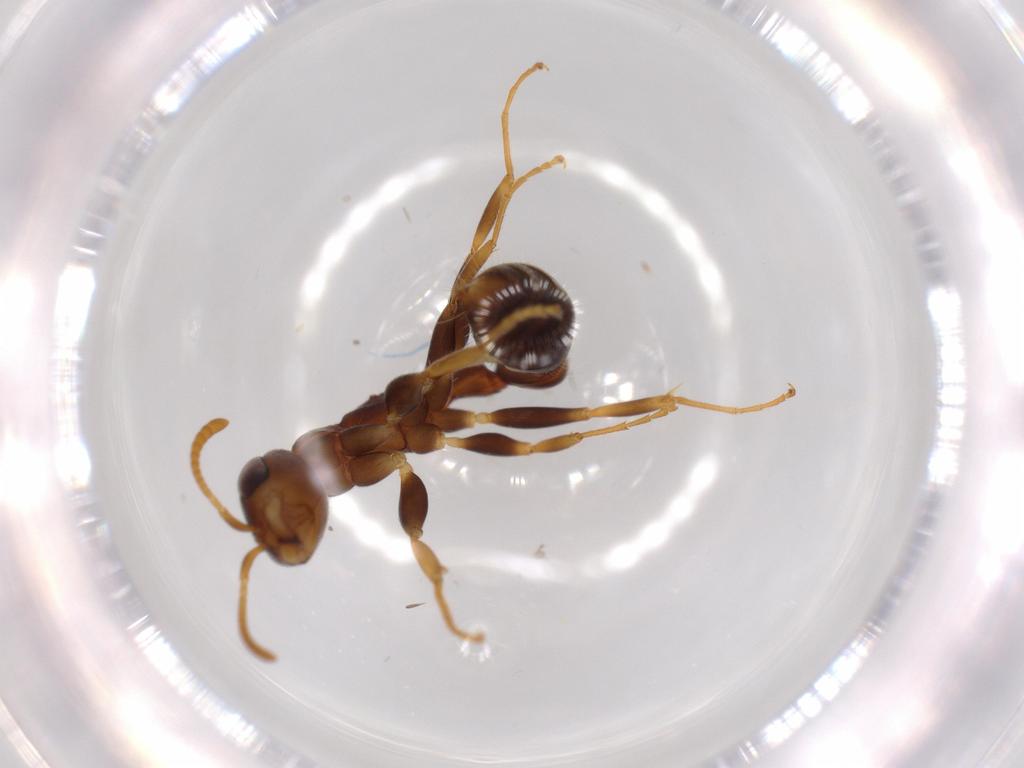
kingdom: Animalia
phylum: Arthropoda
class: Insecta
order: Hymenoptera
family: Formicidae
